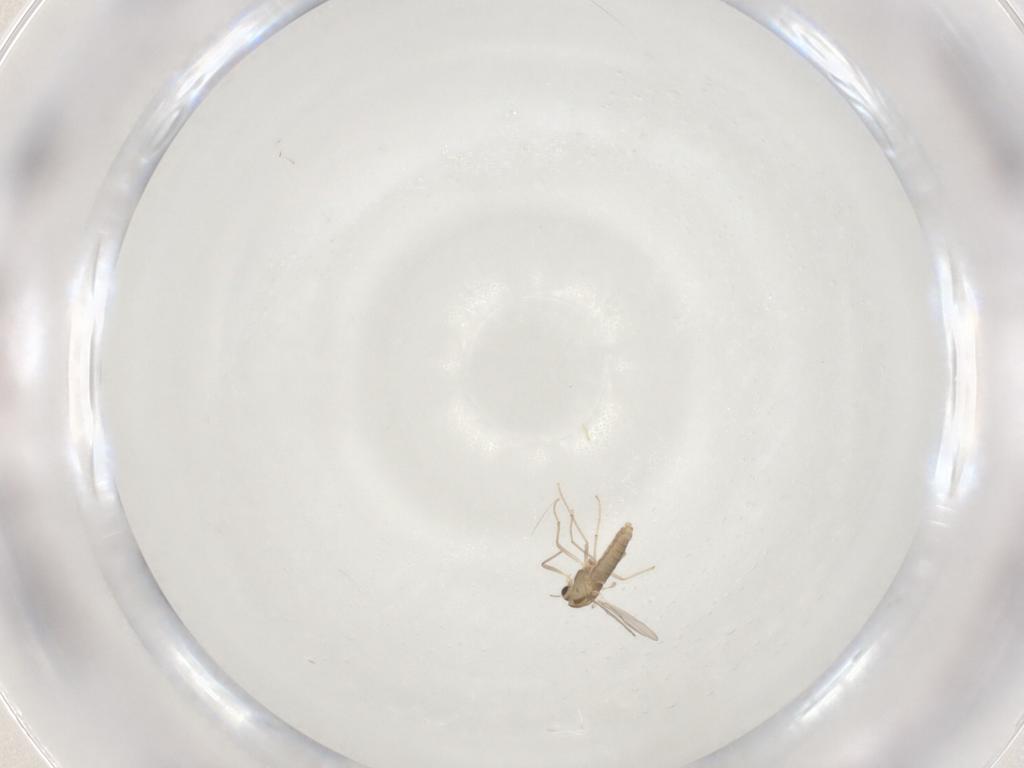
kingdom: Animalia
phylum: Arthropoda
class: Insecta
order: Diptera
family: Chironomidae
